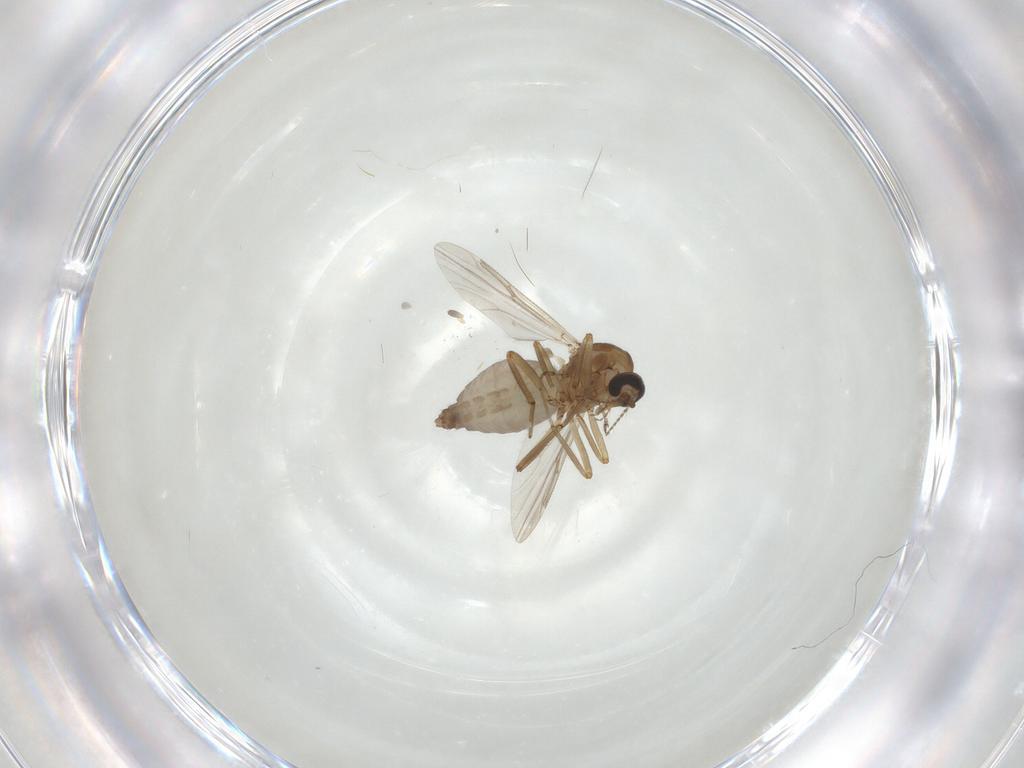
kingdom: Animalia
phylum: Arthropoda
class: Insecta
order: Diptera
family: Ceratopogonidae
